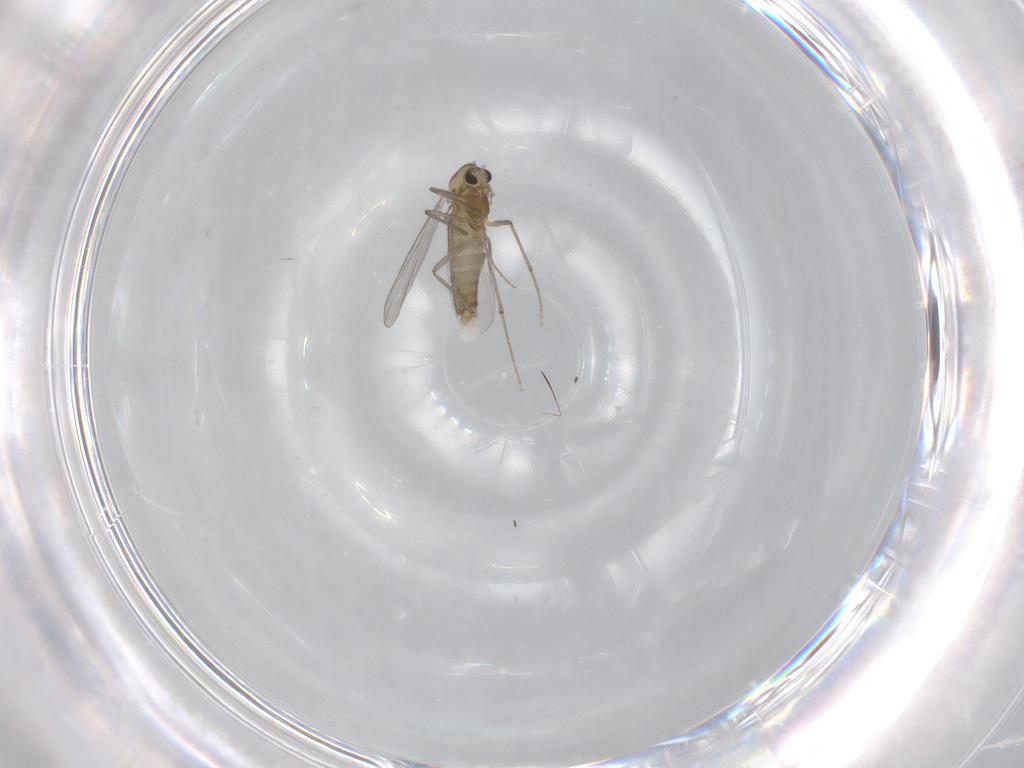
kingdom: Animalia
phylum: Arthropoda
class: Insecta
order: Diptera
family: Chironomidae
